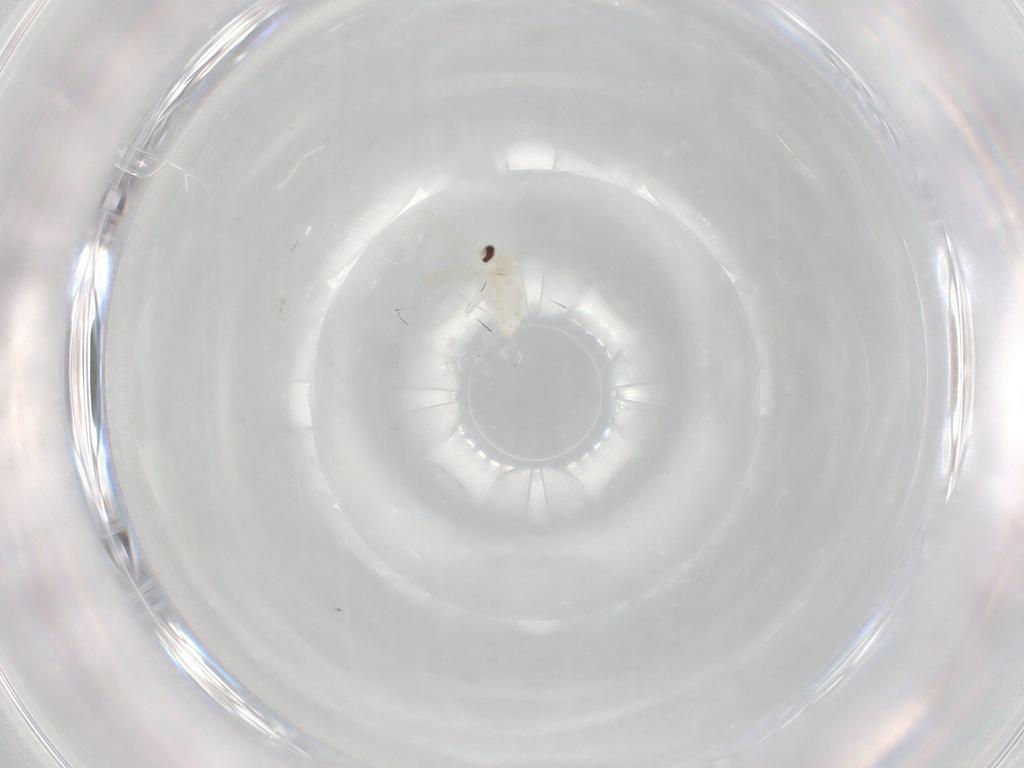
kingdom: Animalia
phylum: Arthropoda
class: Insecta
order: Diptera
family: Cecidomyiidae
